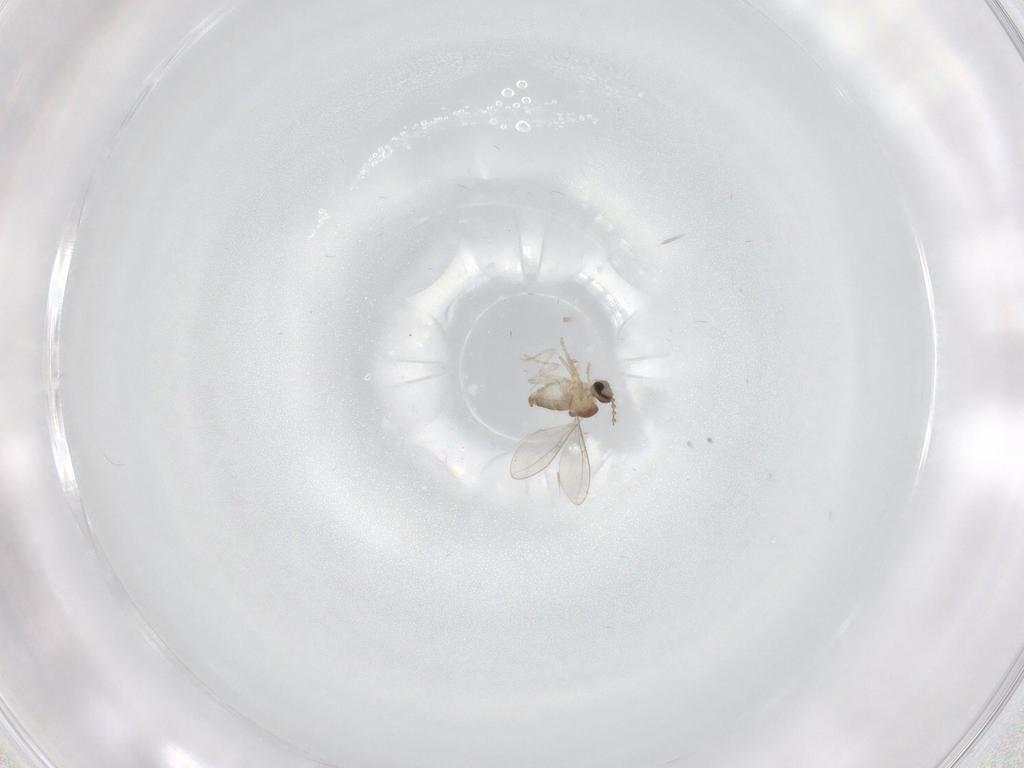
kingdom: Animalia
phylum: Arthropoda
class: Insecta
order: Diptera
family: Cecidomyiidae
